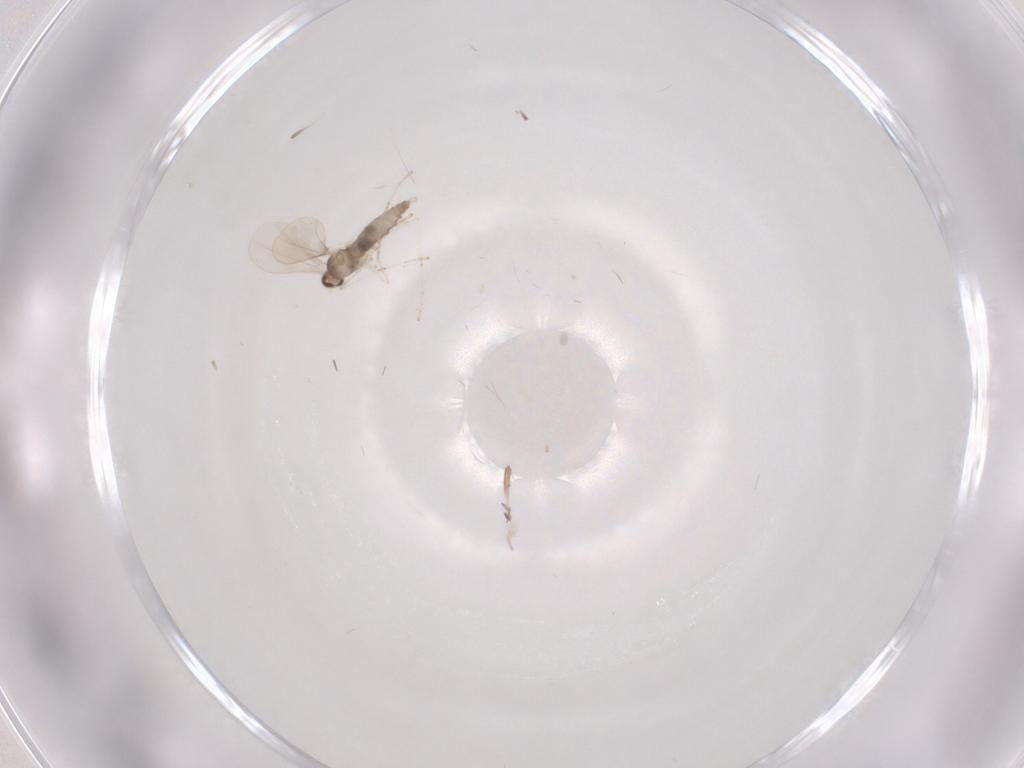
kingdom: Animalia
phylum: Arthropoda
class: Insecta
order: Diptera
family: Cecidomyiidae
